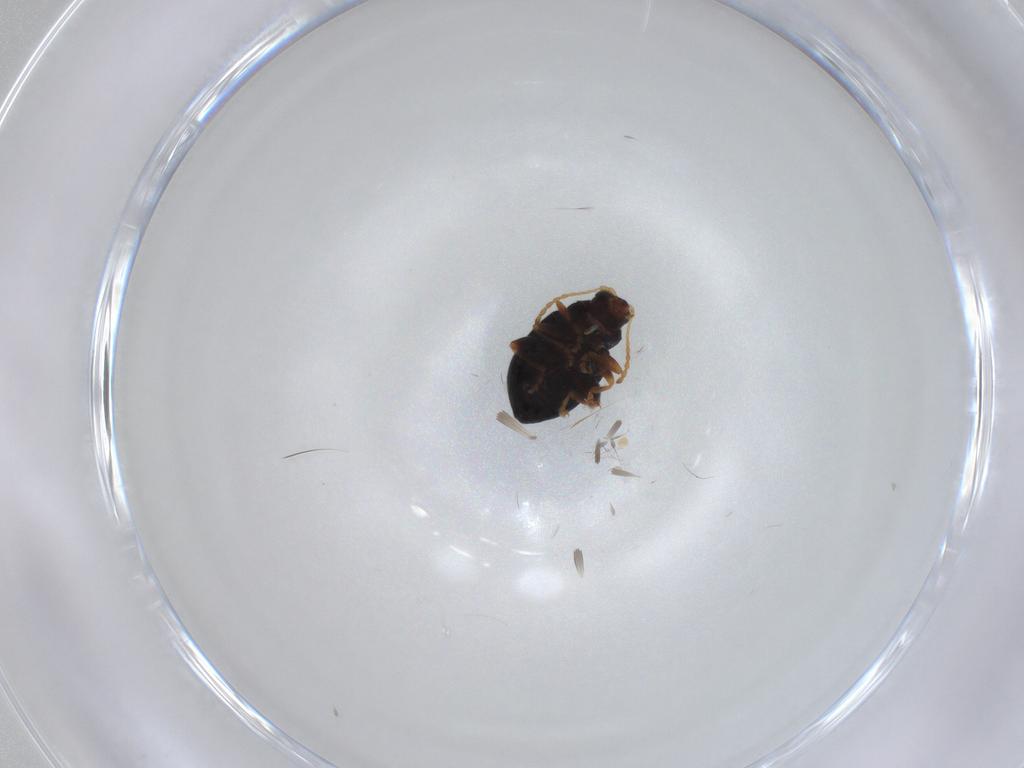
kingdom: Animalia
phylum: Arthropoda
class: Insecta
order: Coleoptera
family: Chrysomelidae
